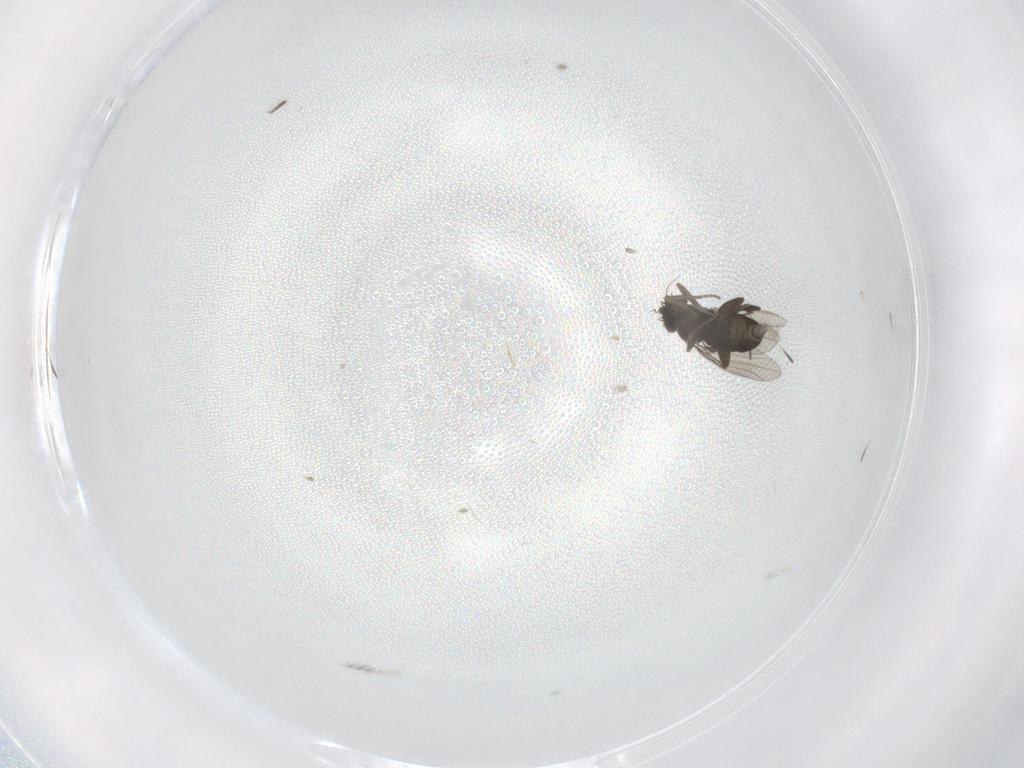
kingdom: Animalia
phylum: Arthropoda
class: Insecta
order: Diptera
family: Phoridae
